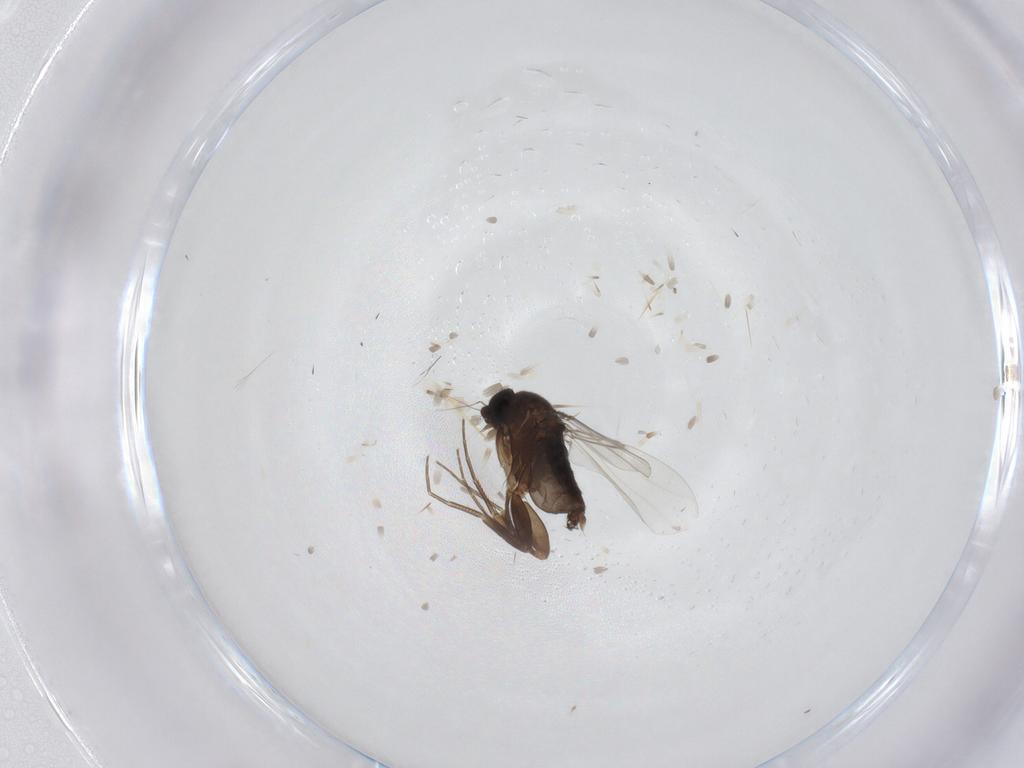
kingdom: Animalia
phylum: Arthropoda
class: Insecta
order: Diptera
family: Phoridae
